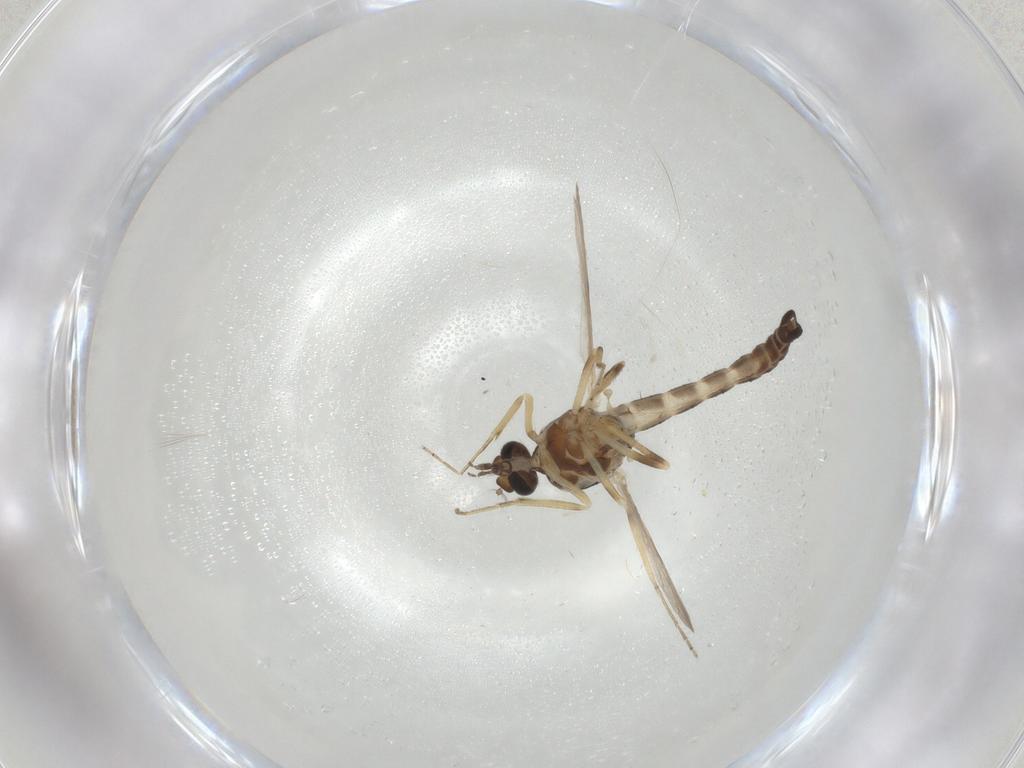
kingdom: Animalia
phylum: Arthropoda
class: Insecta
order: Diptera
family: Ceratopogonidae
